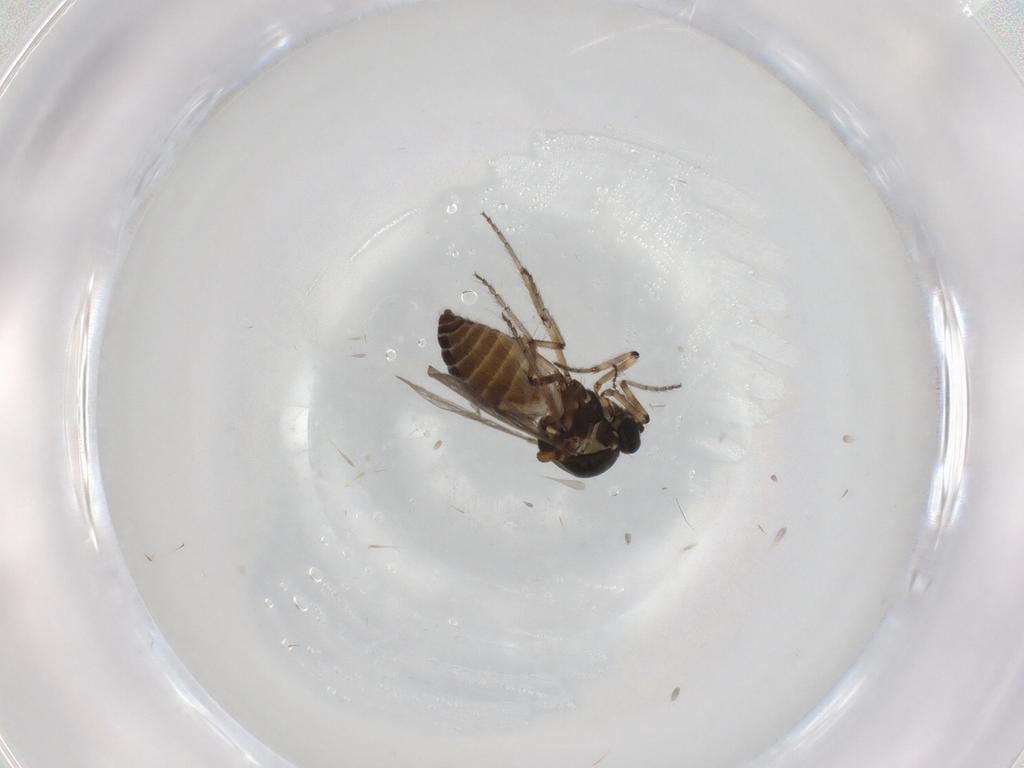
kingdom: Animalia
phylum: Arthropoda
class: Insecta
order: Diptera
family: Ceratopogonidae
